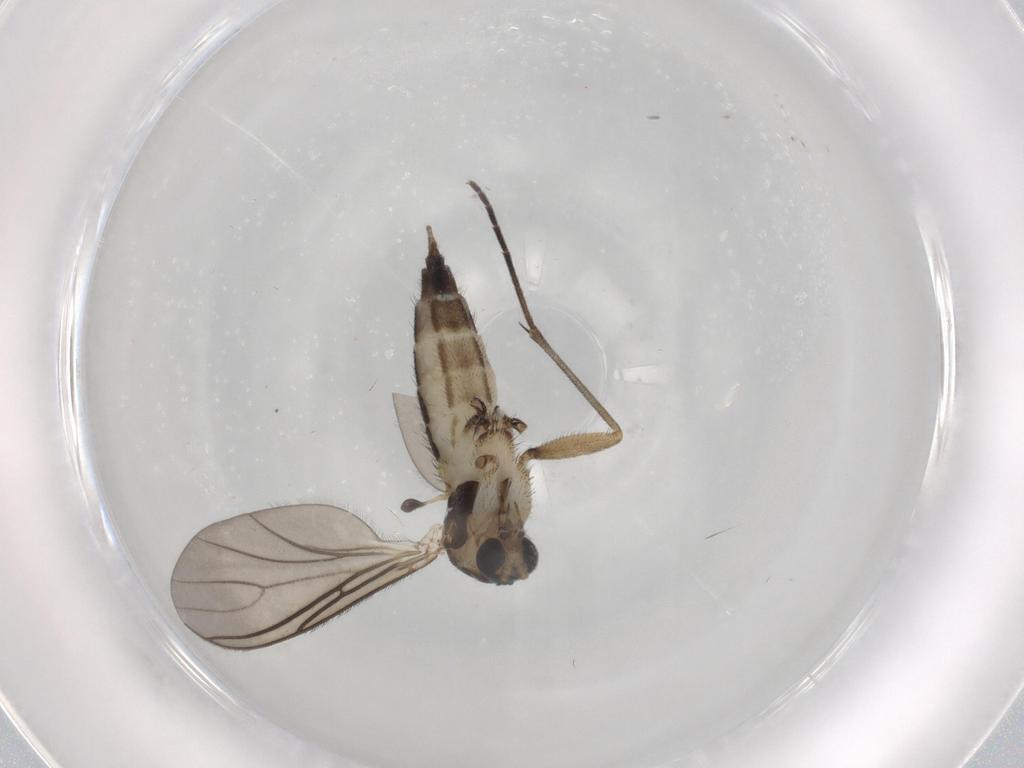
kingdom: Animalia
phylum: Arthropoda
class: Insecta
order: Diptera
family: Sciaridae
